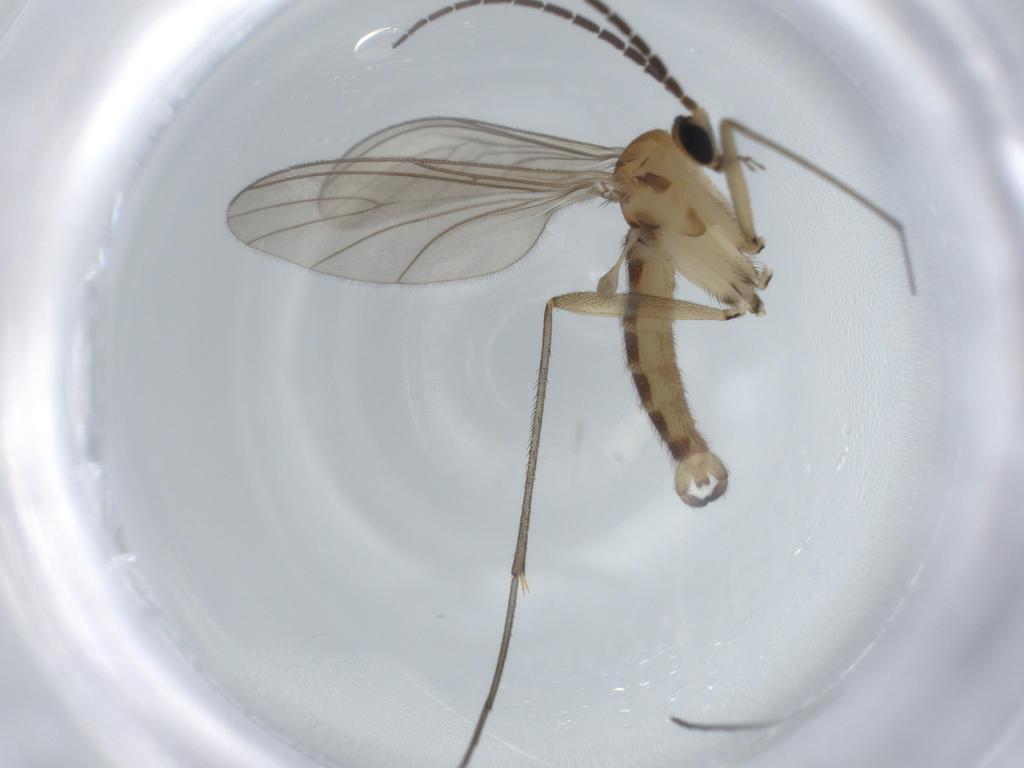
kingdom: Animalia
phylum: Arthropoda
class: Insecta
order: Diptera
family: Sciaridae
